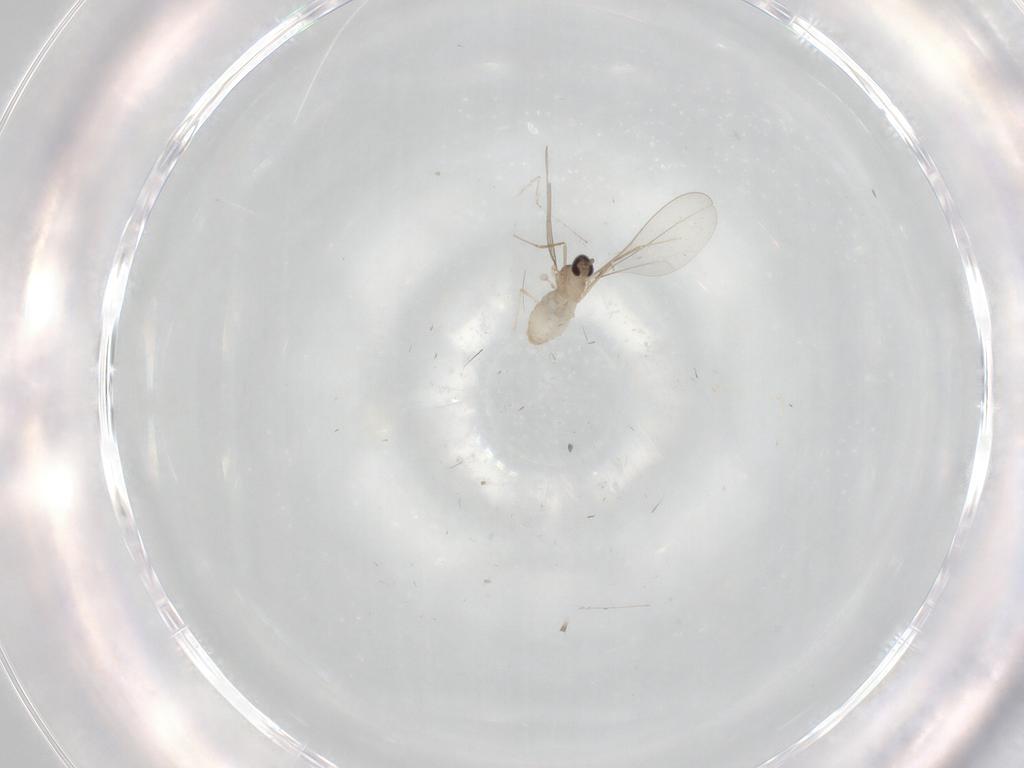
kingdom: Animalia
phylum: Arthropoda
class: Insecta
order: Diptera
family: Cecidomyiidae
